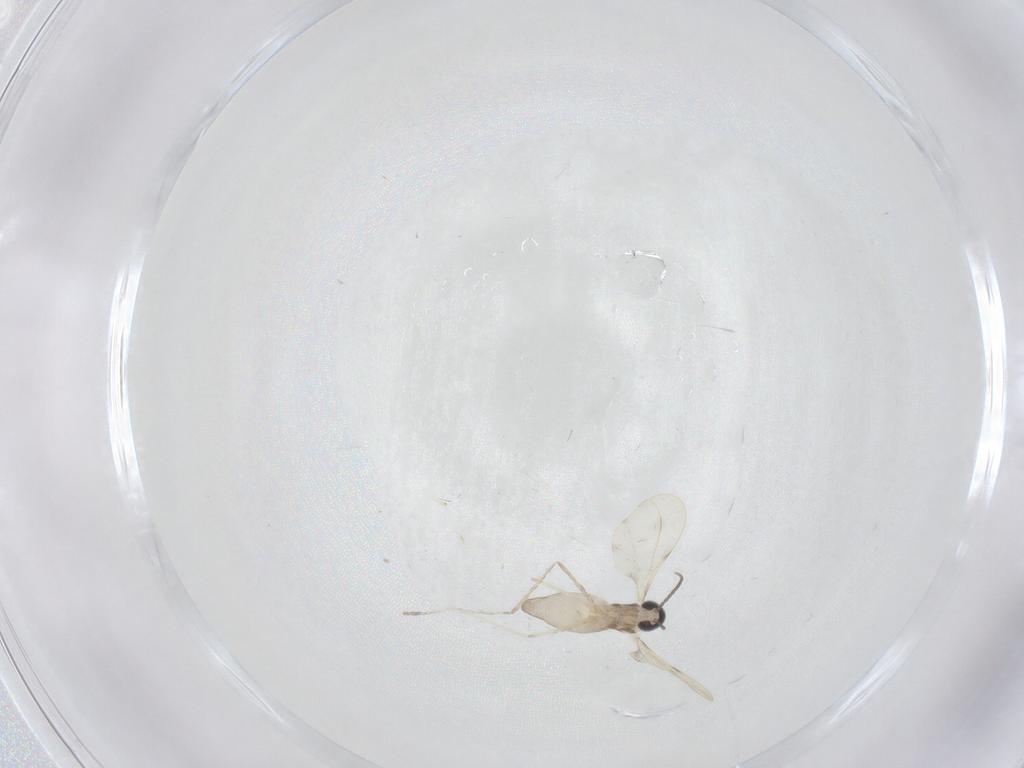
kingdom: Animalia
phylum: Arthropoda
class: Insecta
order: Diptera
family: Cecidomyiidae
